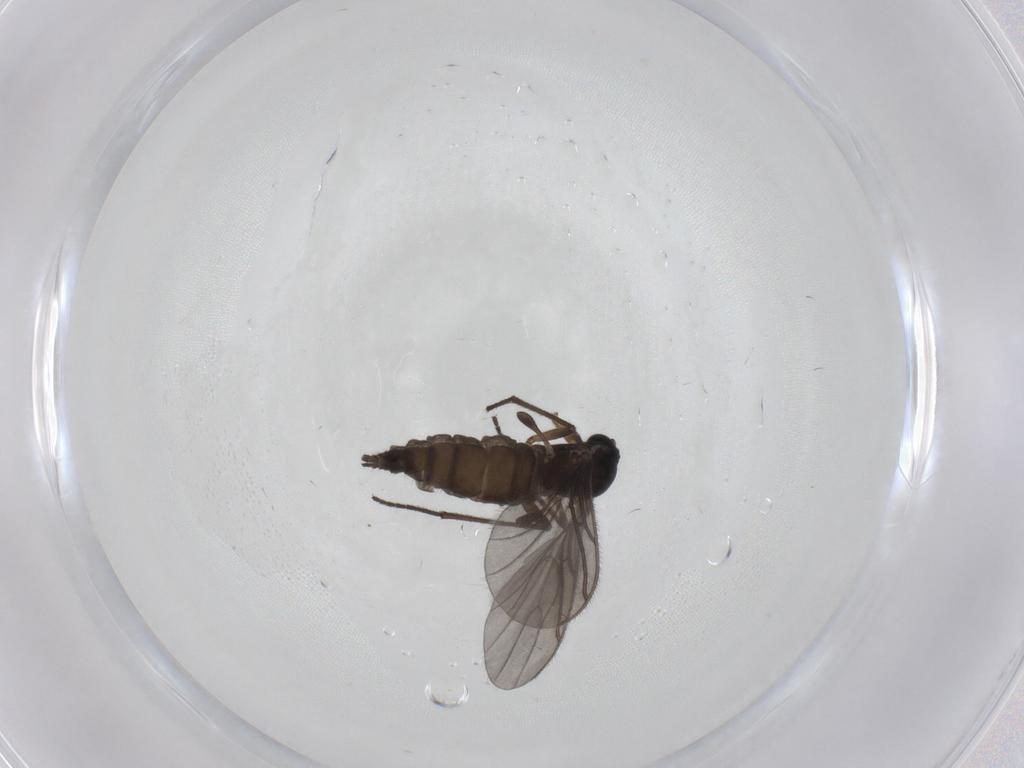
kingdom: Animalia
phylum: Arthropoda
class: Insecta
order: Diptera
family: Sciaridae
